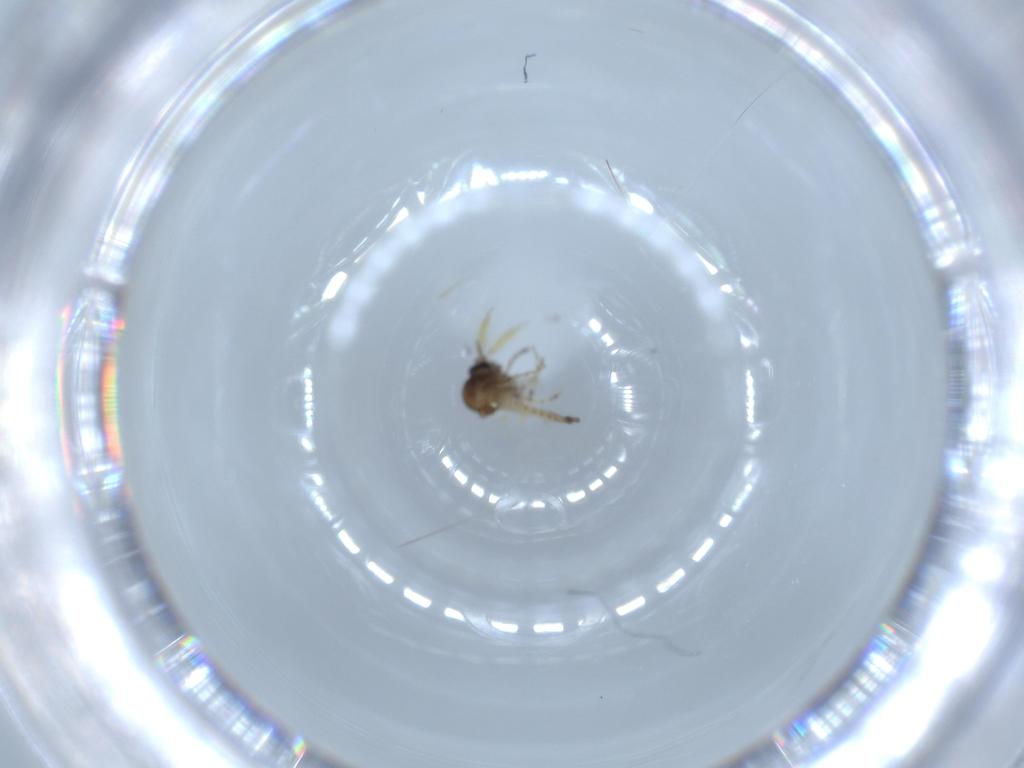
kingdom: Animalia
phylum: Arthropoda
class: Insecta
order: Diptera
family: Ceratopogonidae
